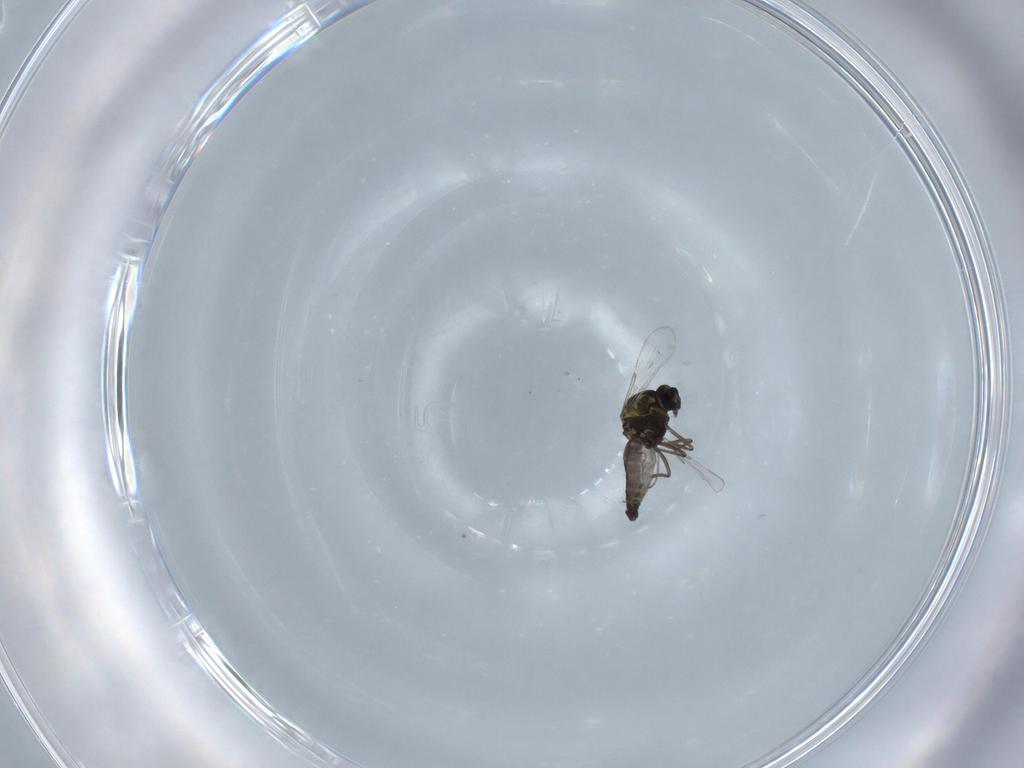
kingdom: Animalia
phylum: Arthropoda
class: Insecta
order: Diptera
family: Ceratopogonidae
